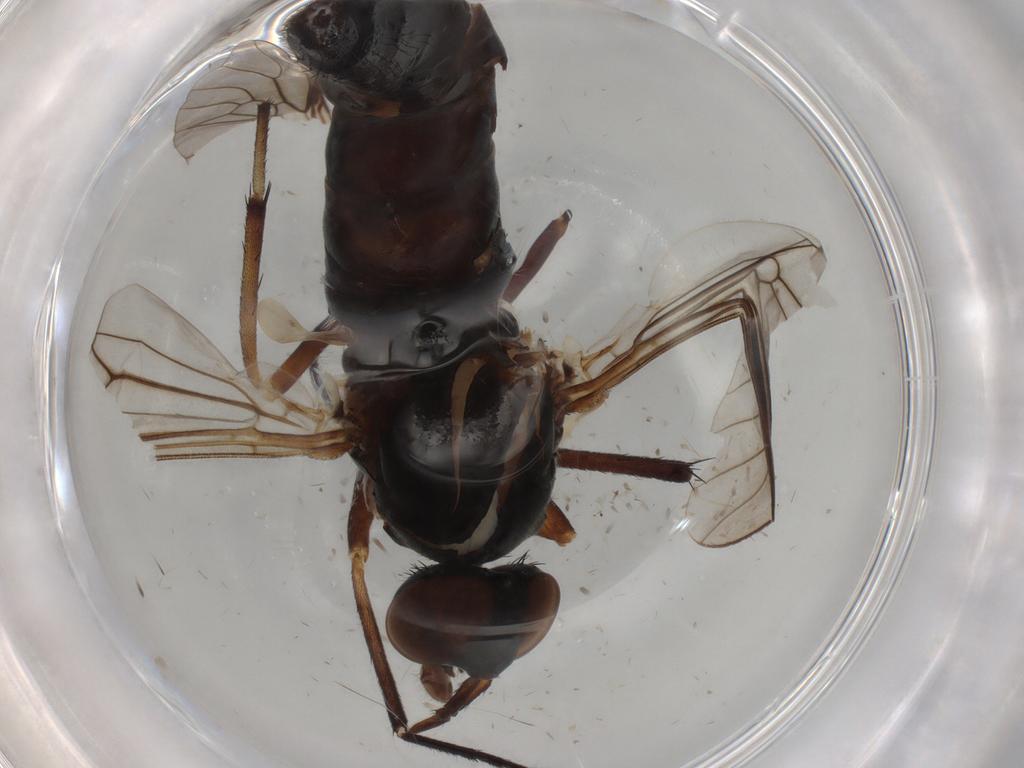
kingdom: Animalia
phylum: Arthropoda
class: Insecta
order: Diptera
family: Therevidae
